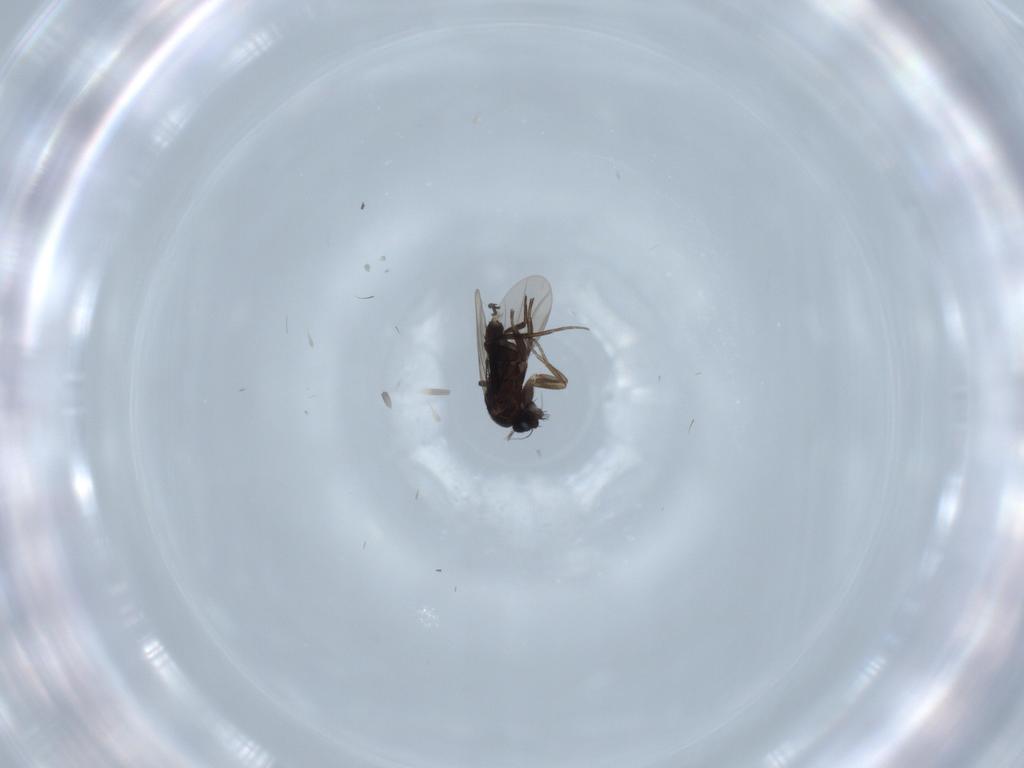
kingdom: Animalia
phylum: Arthropoda
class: Insecta
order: Diptera
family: Phoridae
